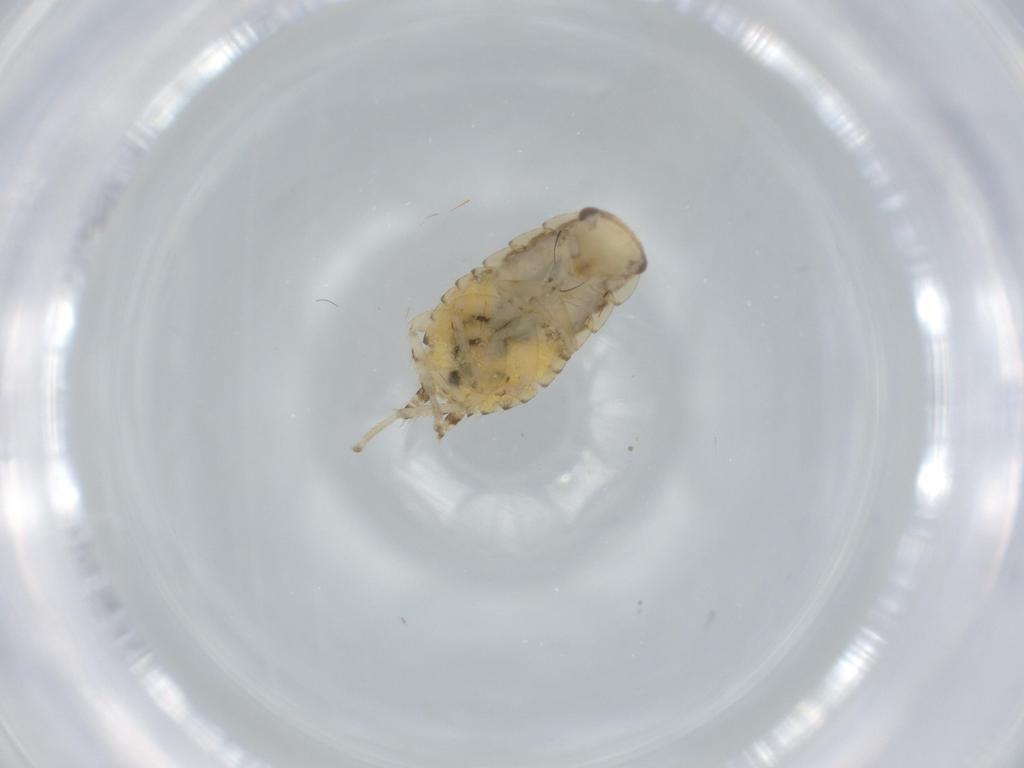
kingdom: Animalia
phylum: Arthropoda
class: Insecta
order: Blattodea
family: Ectobiidae
